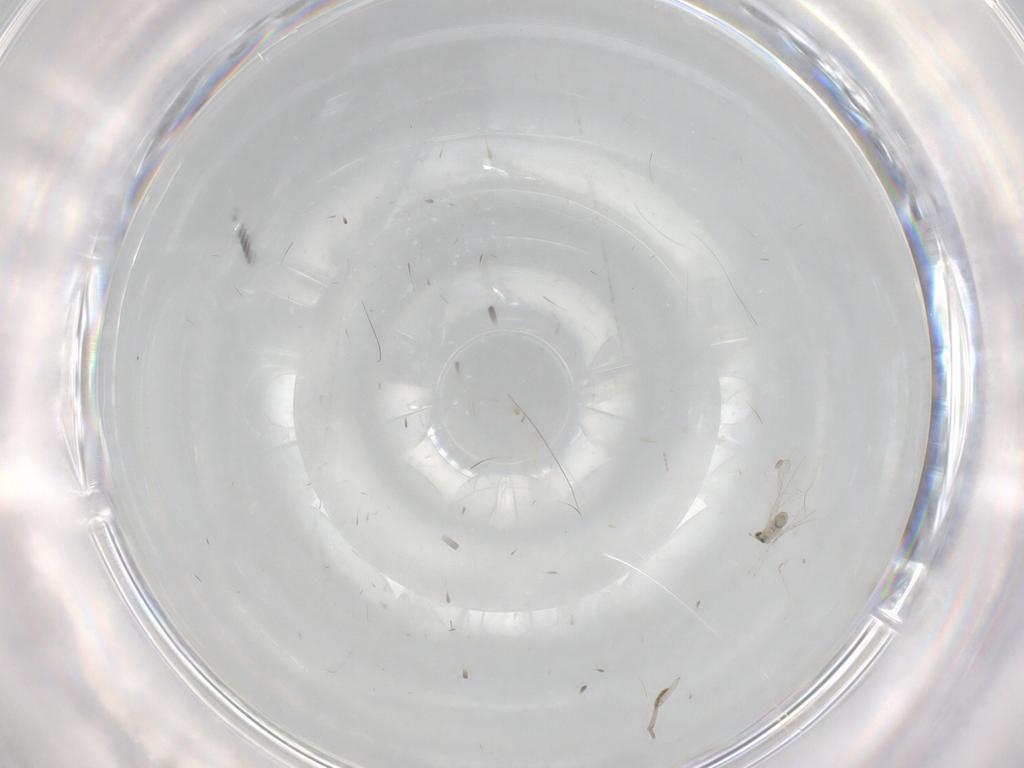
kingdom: Animalia
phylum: Arthropoda
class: Insecta
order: Diptera
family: Cecidomyiidae
